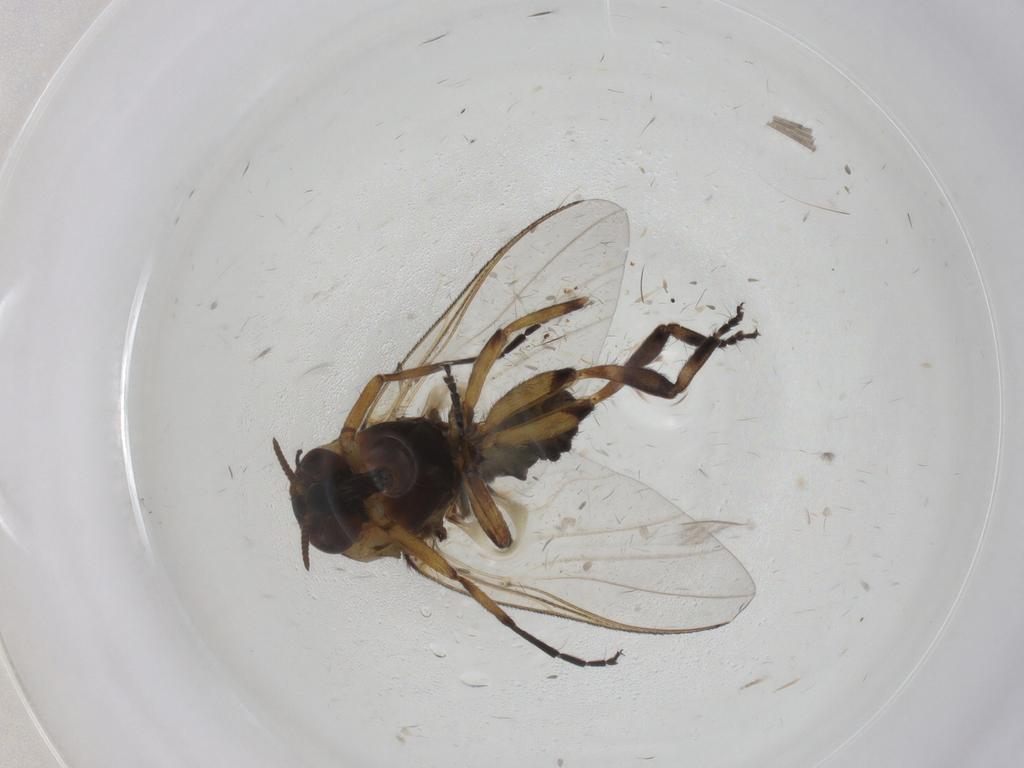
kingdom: Animalia
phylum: Arthropoda
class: Insecta
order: Diptera
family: Simuliidae
